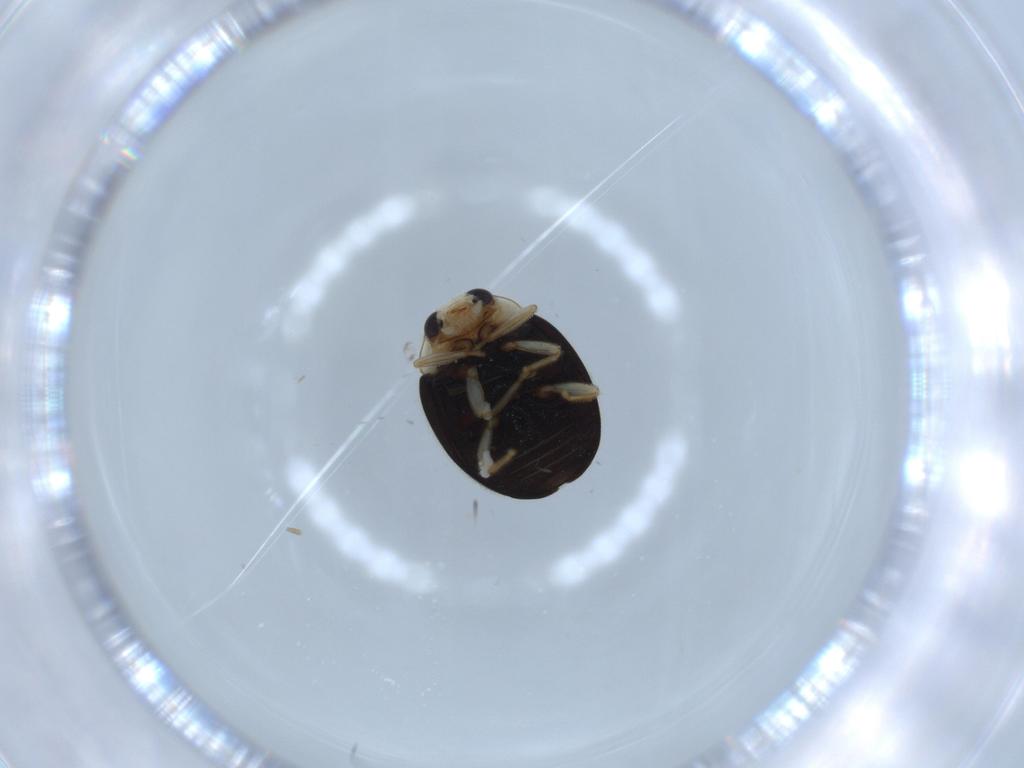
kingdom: Animalia
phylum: Arthropoda
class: Insecta
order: Coleoptera
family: Coccinellidae
